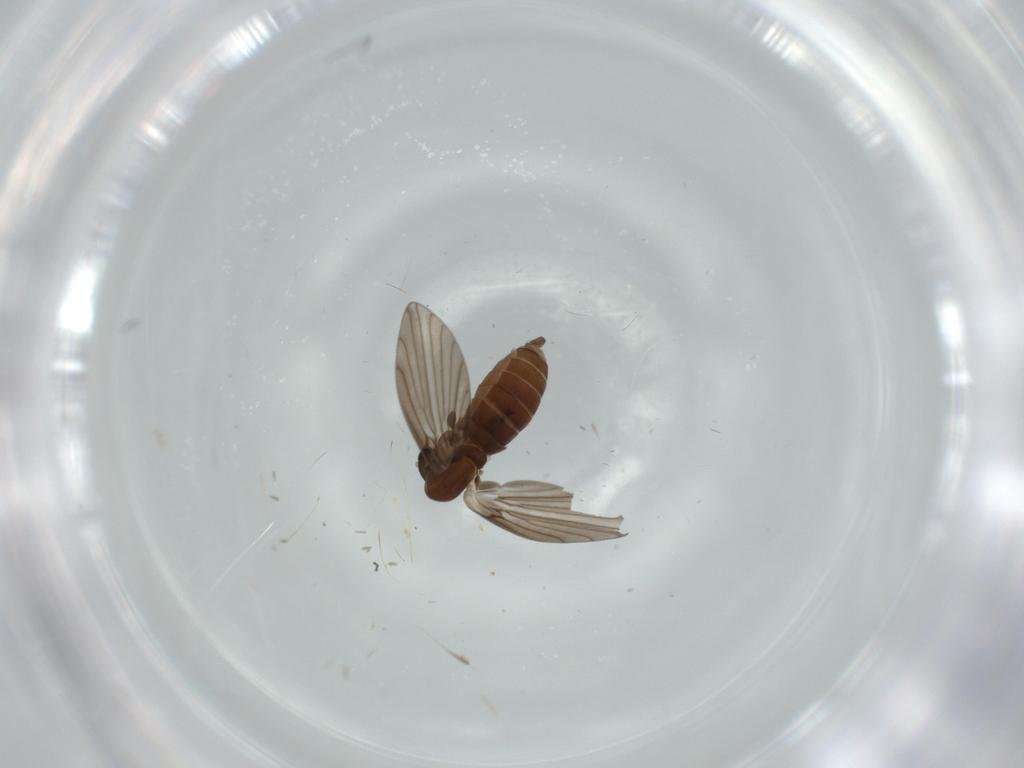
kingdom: Animalia
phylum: Arthropoda
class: Insecta
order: Diptera
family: Psychodidae
